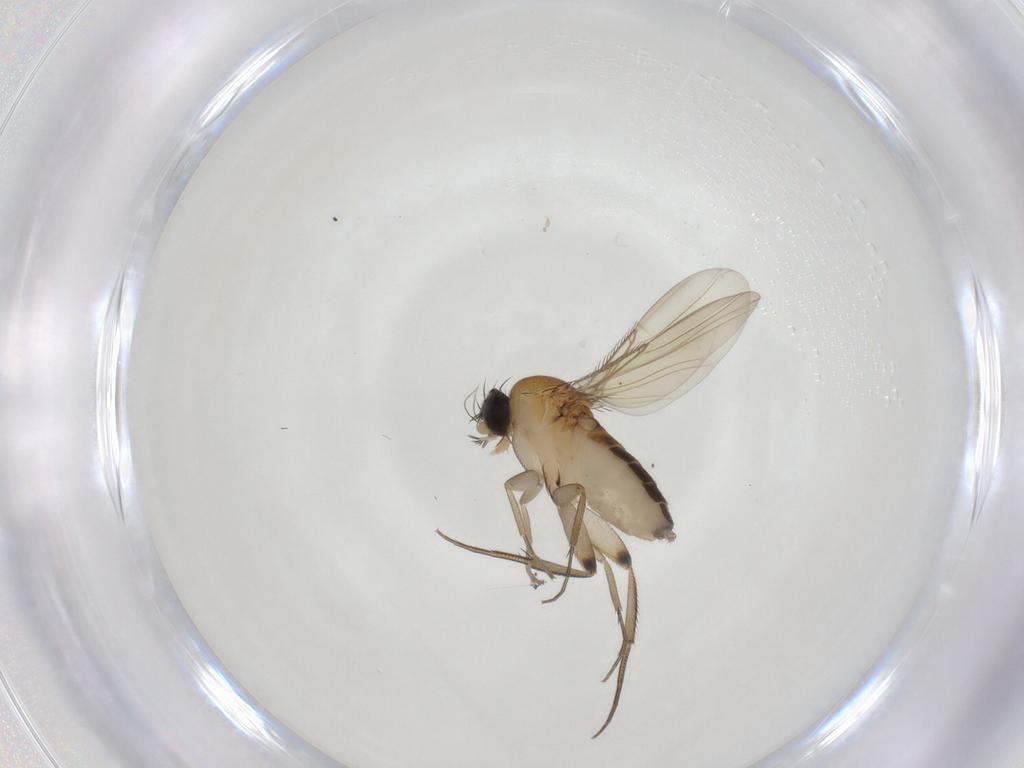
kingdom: Animalia
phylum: Arthropoda
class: Insecta
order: Diptera
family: Phoridae
